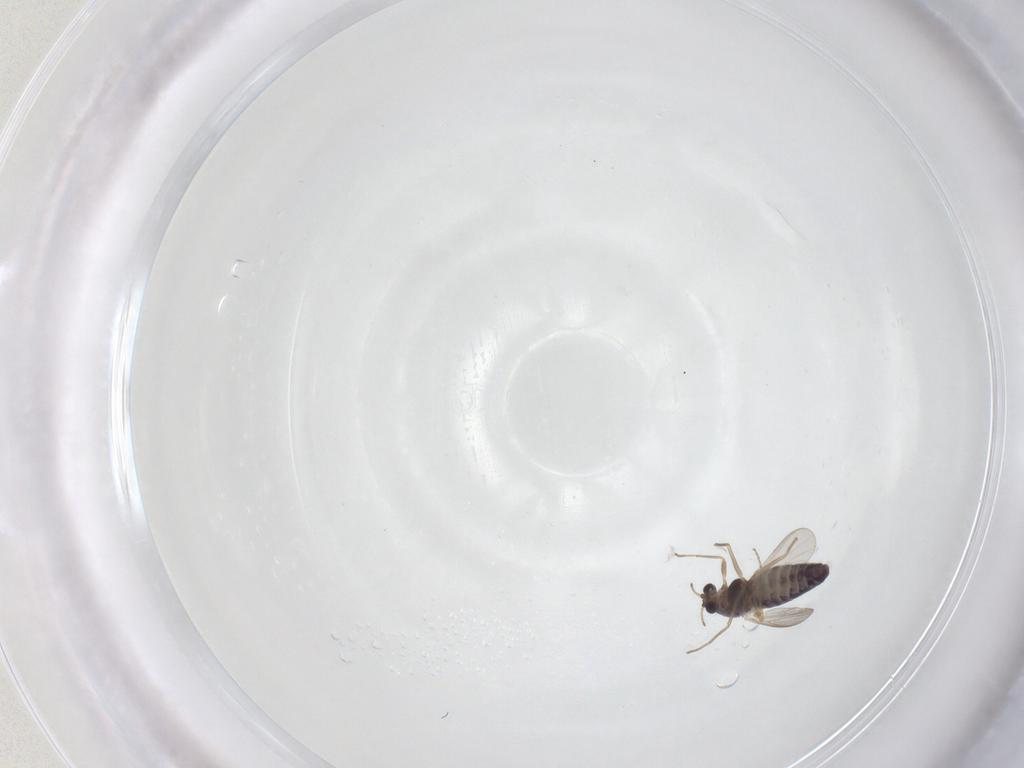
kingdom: Animalia
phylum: Arthropoda
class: Insecta
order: Diptera
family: Chironomidae
